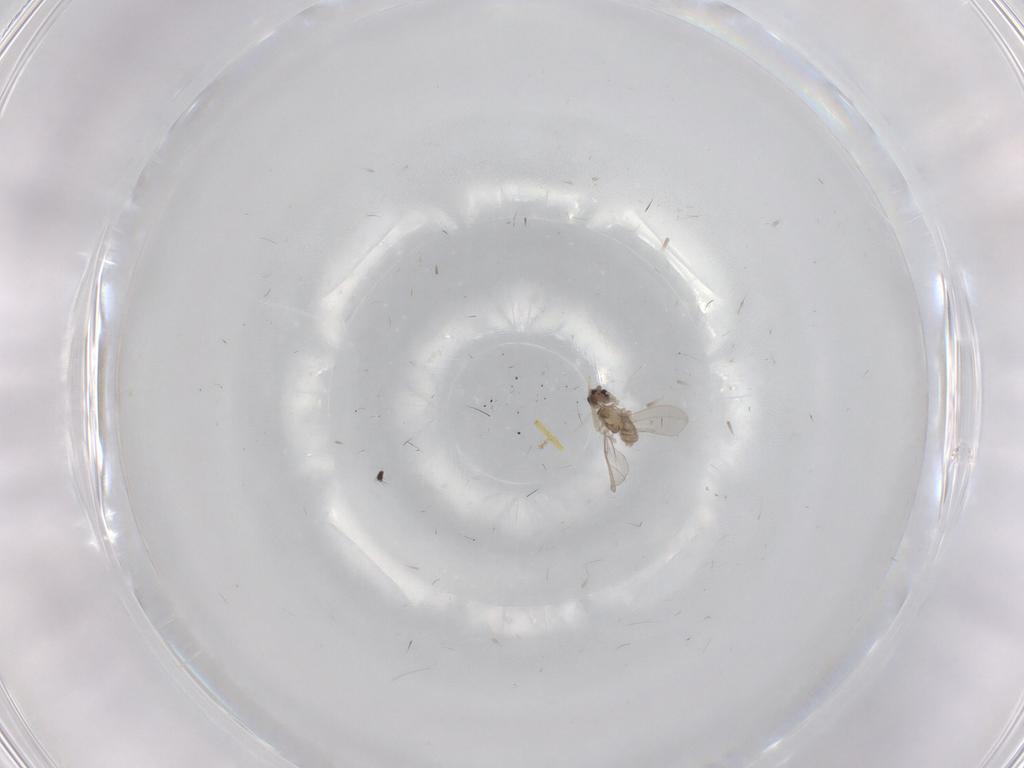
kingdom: Animalia
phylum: Arthropoda
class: Insecta
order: Diptera
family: Cecidomyiidae
